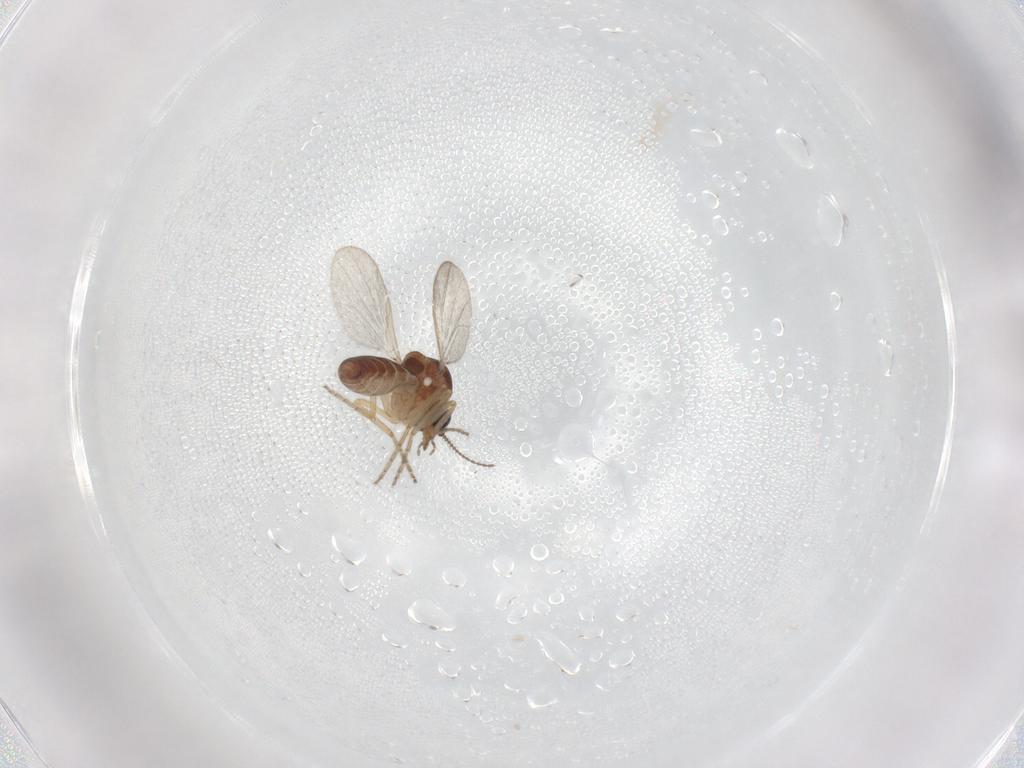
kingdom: Animalia
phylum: Arthropoda
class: Insecta
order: Diptera
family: Ceratopogonidae
